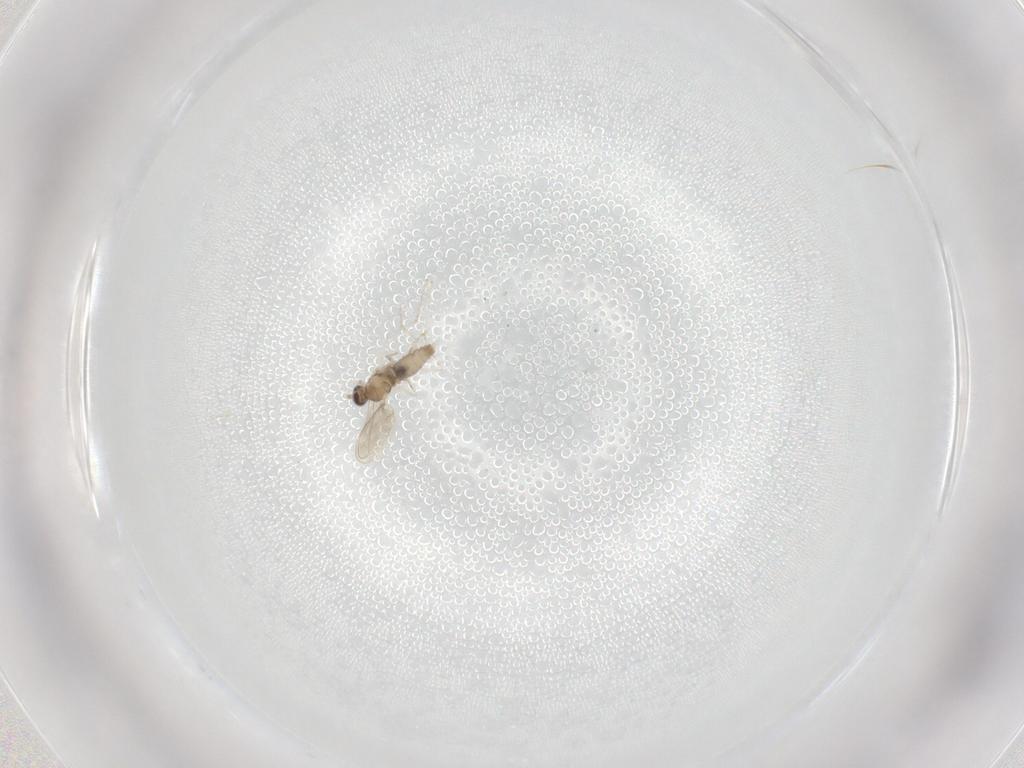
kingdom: Animalia
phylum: Arthropoda
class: Insecta
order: Diptera
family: Cecidomyiidae
